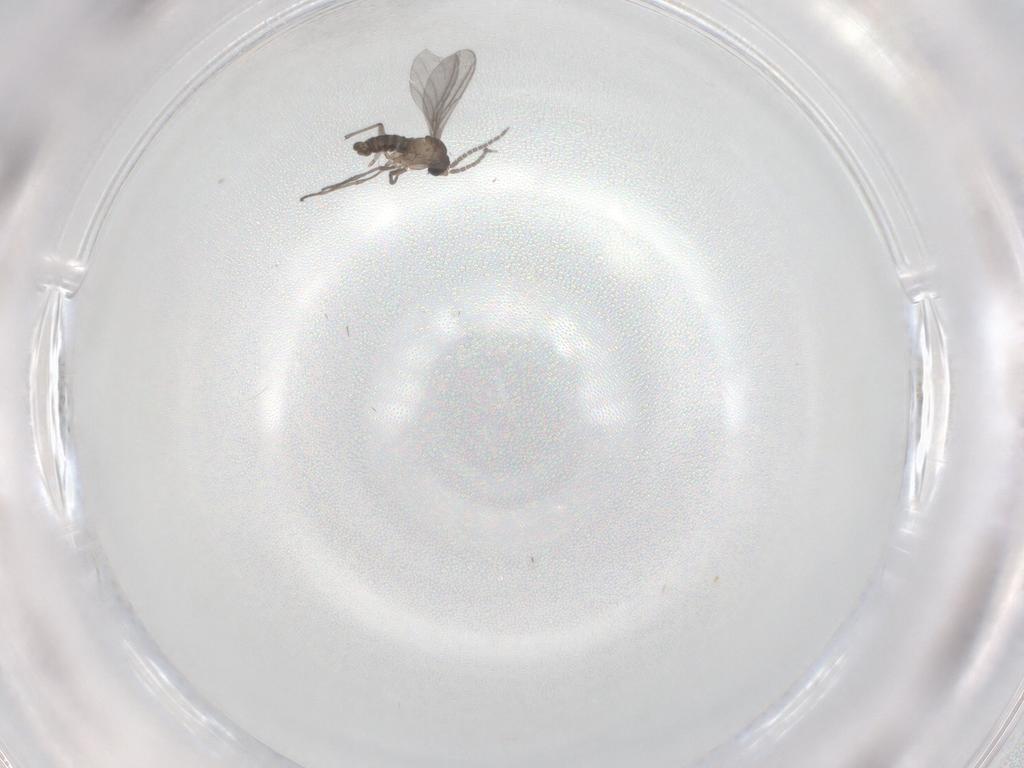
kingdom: Animalia
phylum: Arthropoda
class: Insecta
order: Diptera
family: Sciaridae
